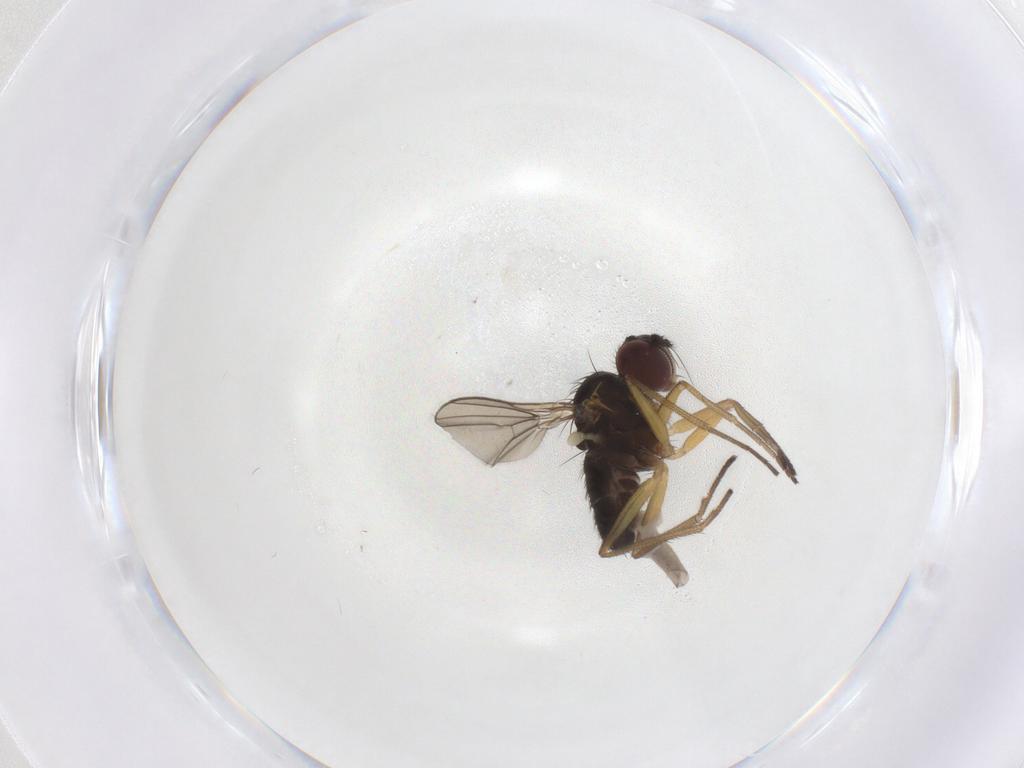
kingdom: Animalia
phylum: Arthropoda
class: Insecta
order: Diptera
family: Dolichopodidae
